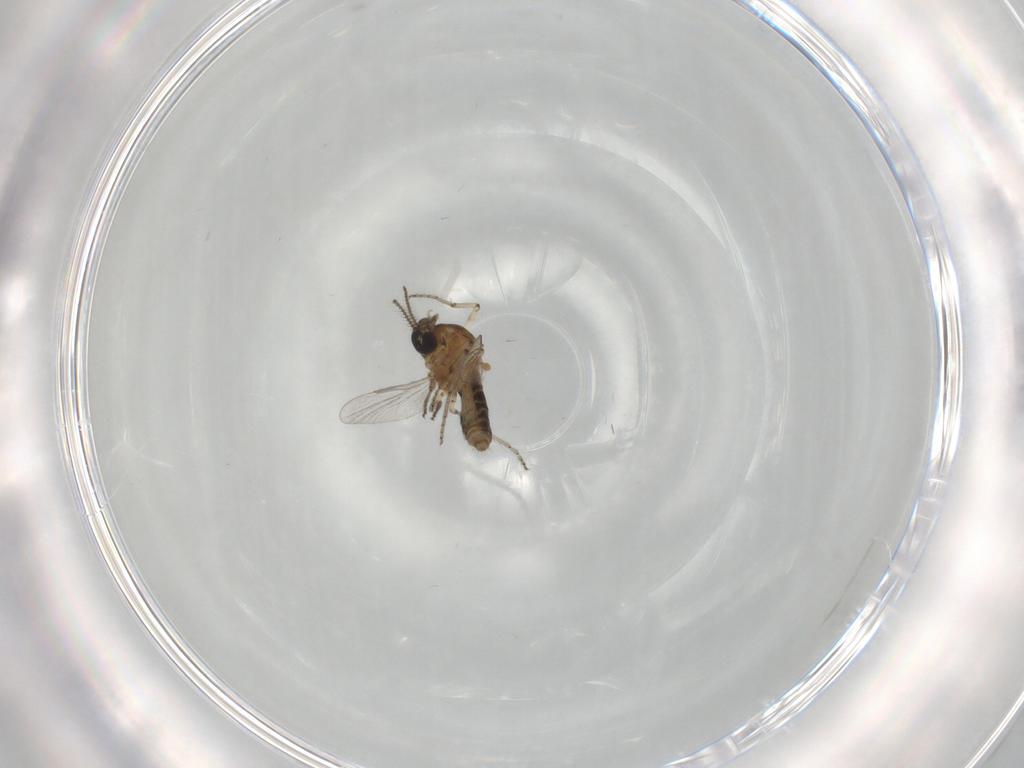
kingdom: Animalia
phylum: Arthropoda
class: Insecta
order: Diptera
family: Ceratopogonidae
